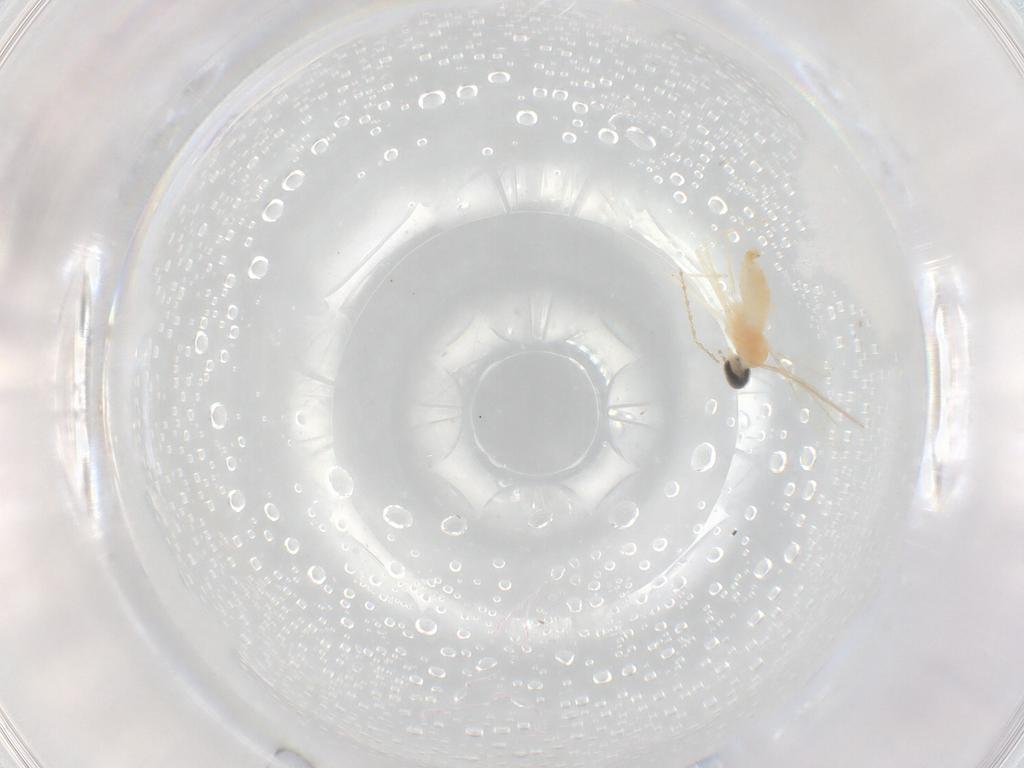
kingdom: Animalia
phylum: Arthropoda
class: Insecta
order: Diptera
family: Cecidomyiidae
